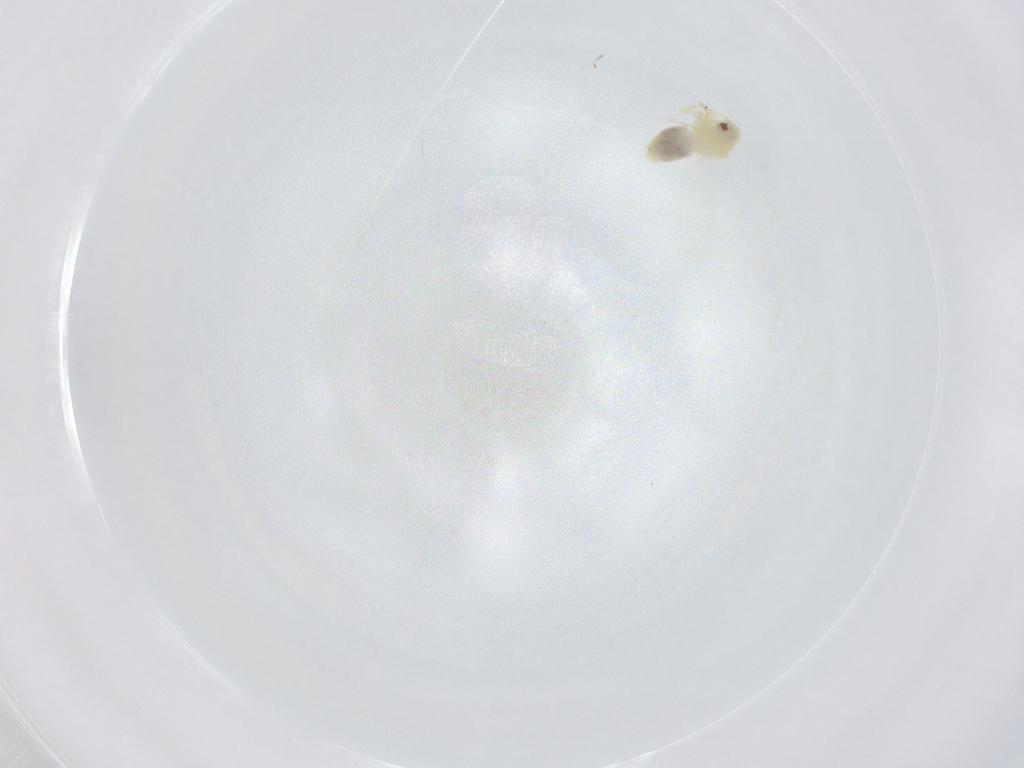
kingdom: Animalia
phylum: Arthropoda
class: Insecta
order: Hemiptera
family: Aleyrodidae
